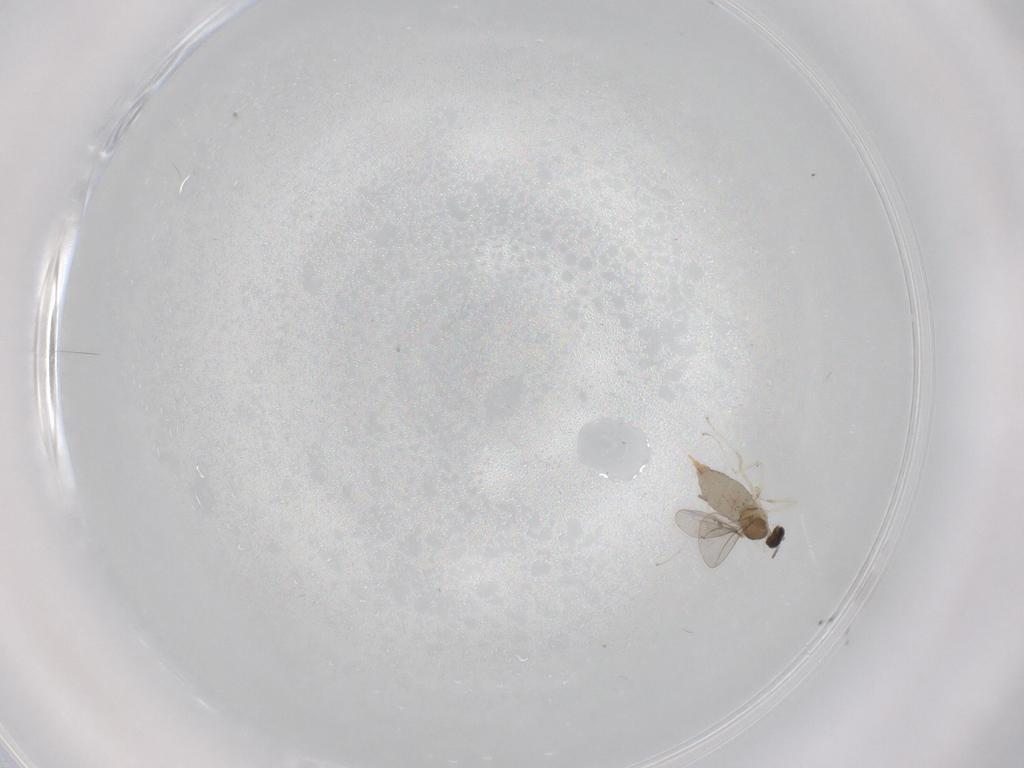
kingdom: Animalia
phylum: Arthropoda
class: Insecta
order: Diptera
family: Cecidomyiidae
